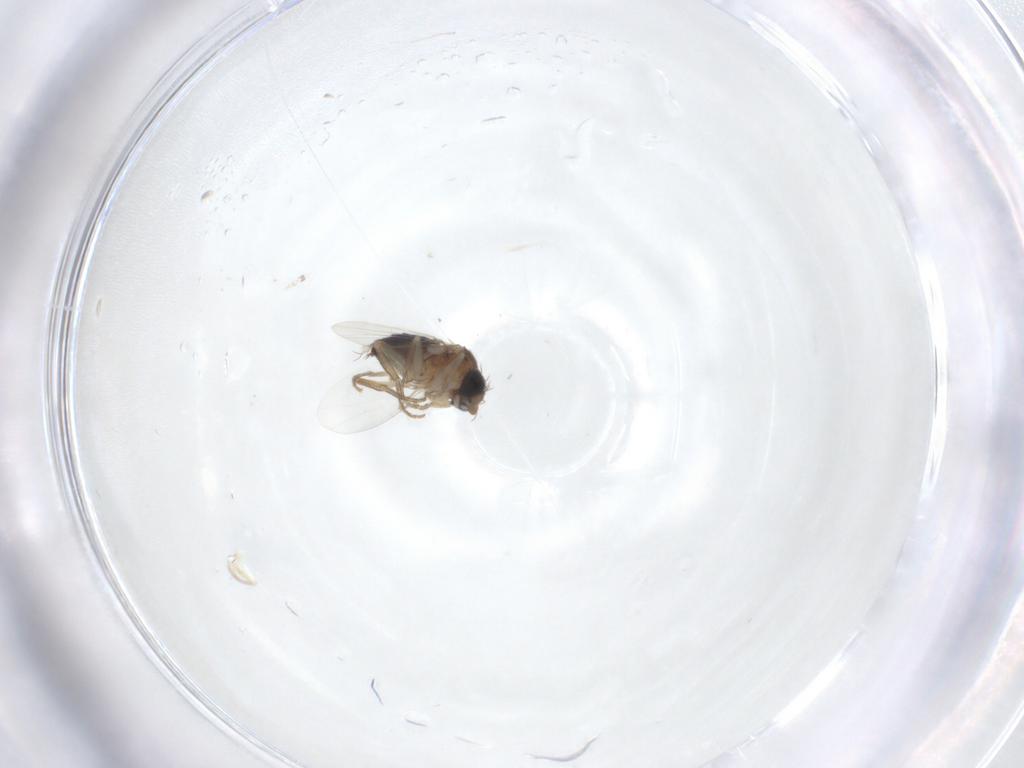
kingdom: Animalia
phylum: Arthropoda
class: Insecta
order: Diptera
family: Phoridae
